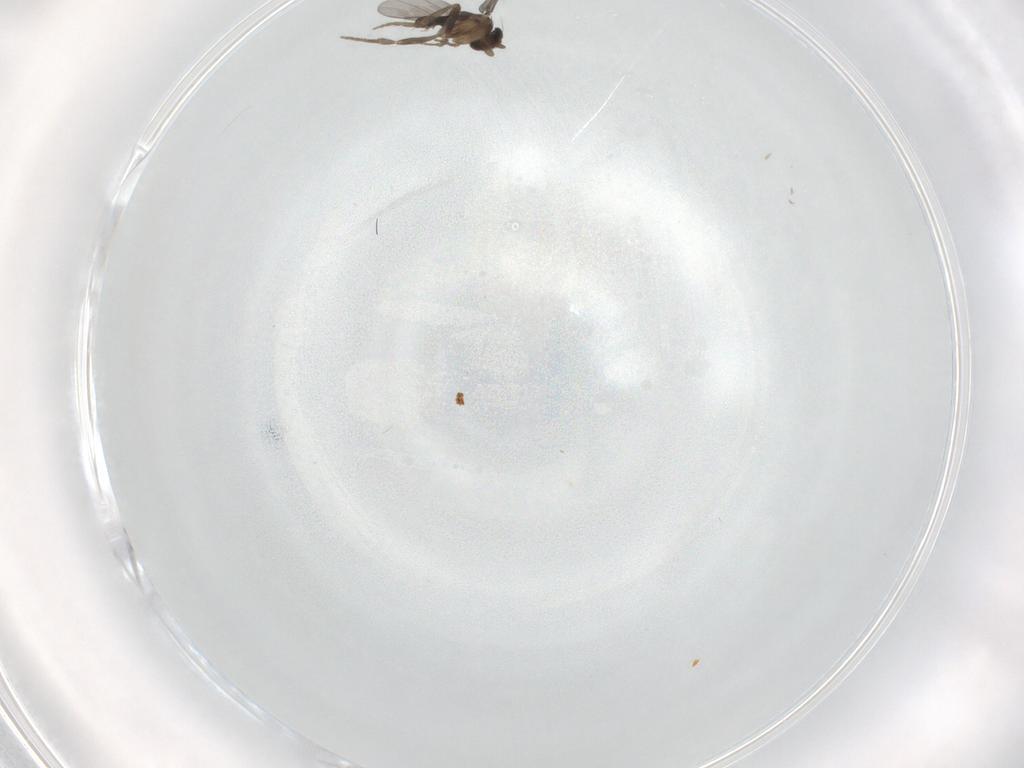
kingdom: Animalia
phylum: Arthropoda
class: Insecta
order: Diptera
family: Phoridae
